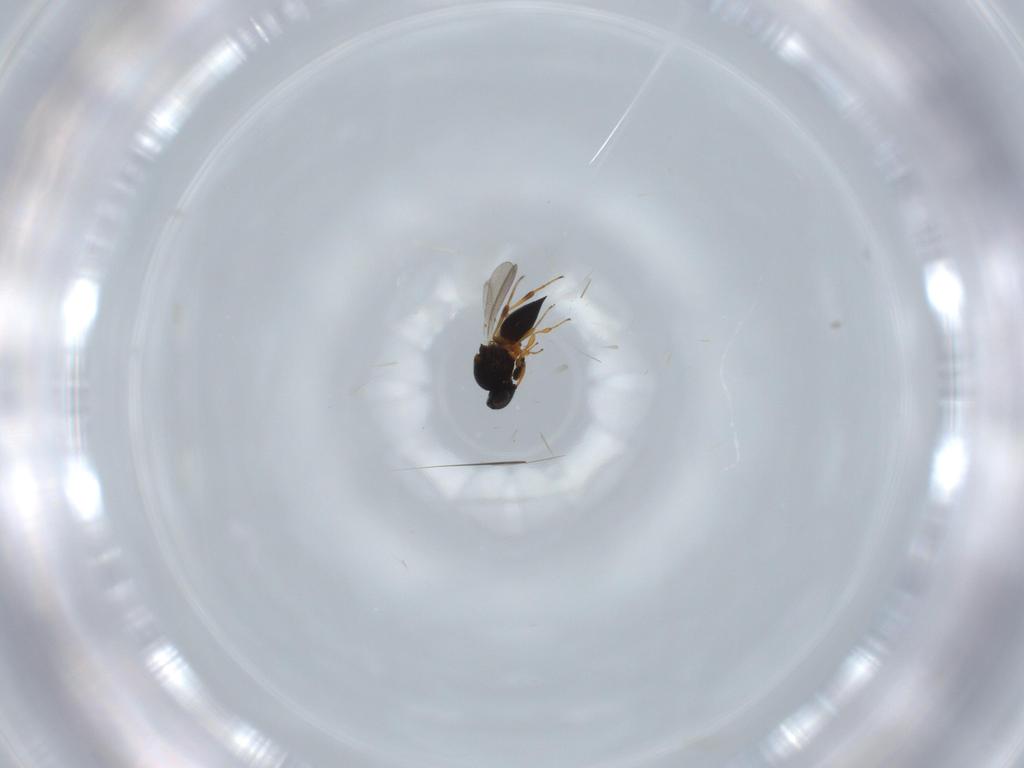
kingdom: Animalia
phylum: Arthropoda
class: Insecta
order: Hymenoptera
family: Platygastridae
